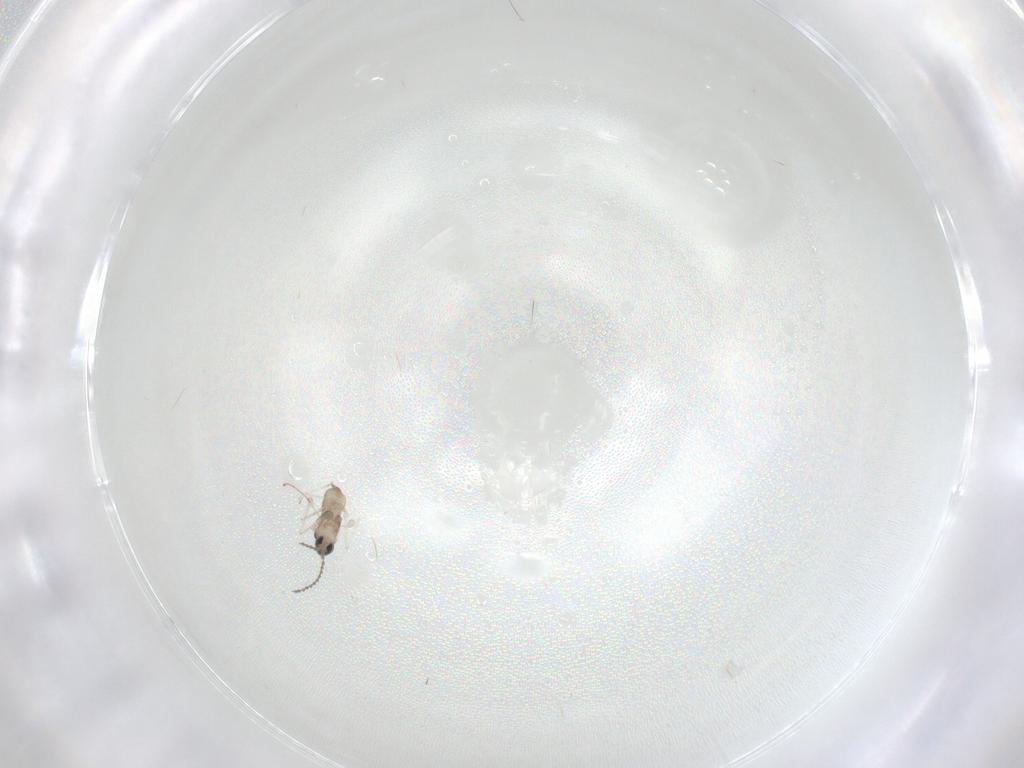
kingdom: Animalia
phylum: Arthropoda
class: Insecta
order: Diptera
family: Cecidomyiidae
